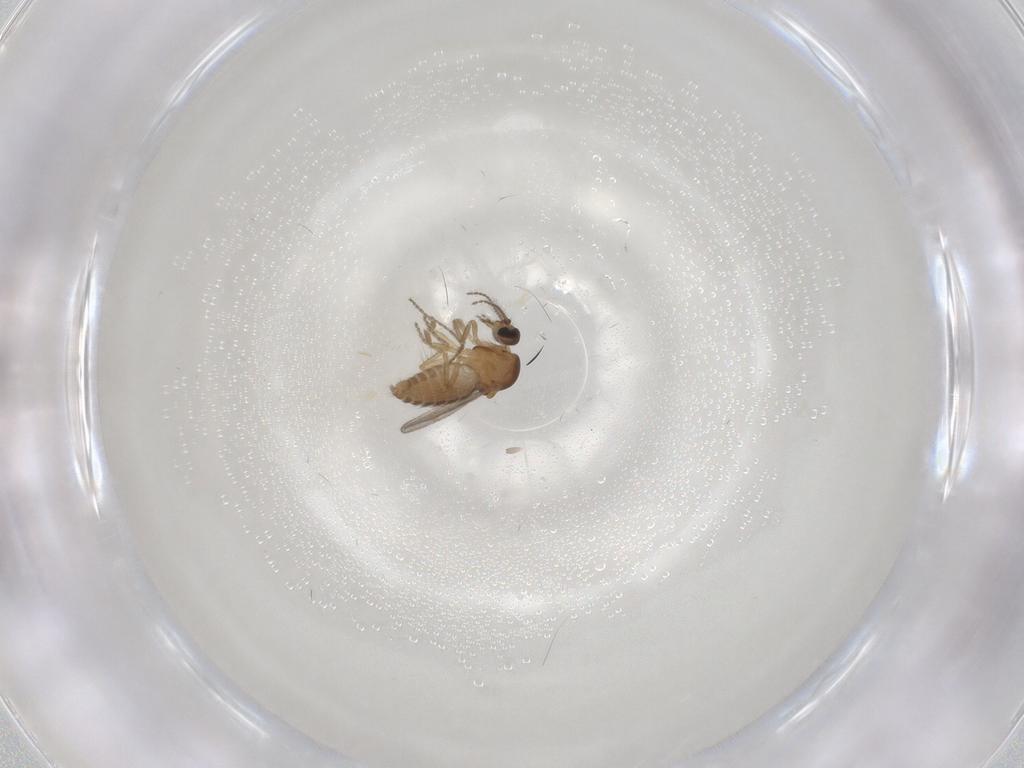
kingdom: Animalia
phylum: Arthropoda
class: Insecta
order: Diptera
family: Ceratopogonidae
